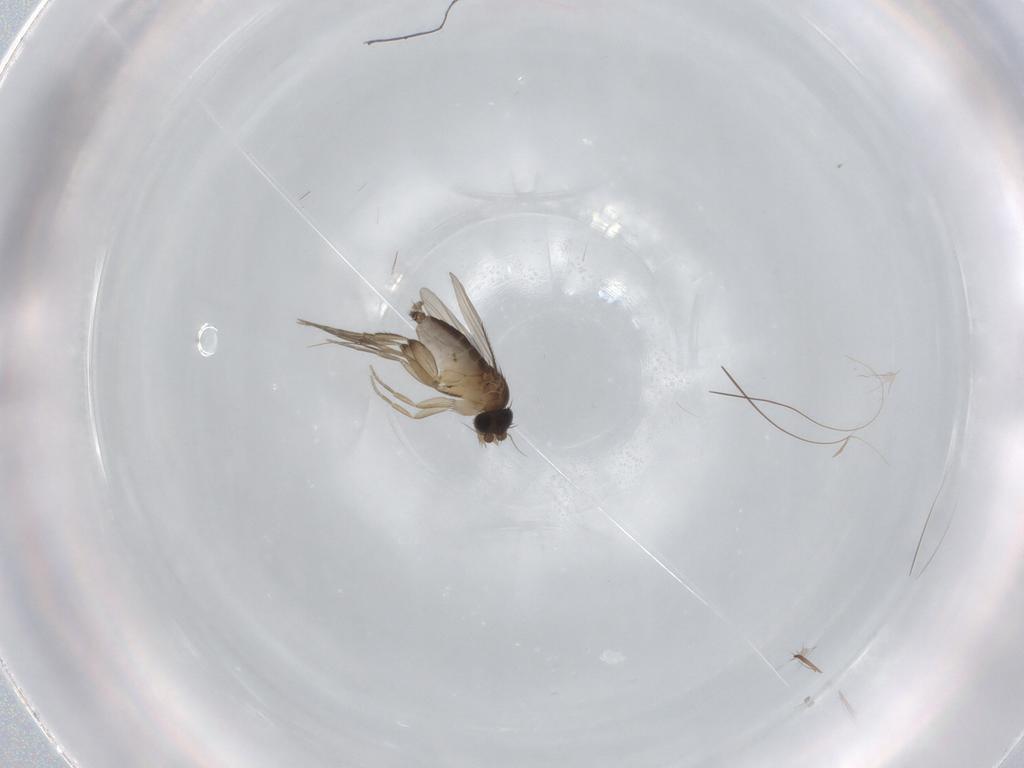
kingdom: Animalia
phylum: Arthropoda
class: Insecta
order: Diptera
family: Phoridae
